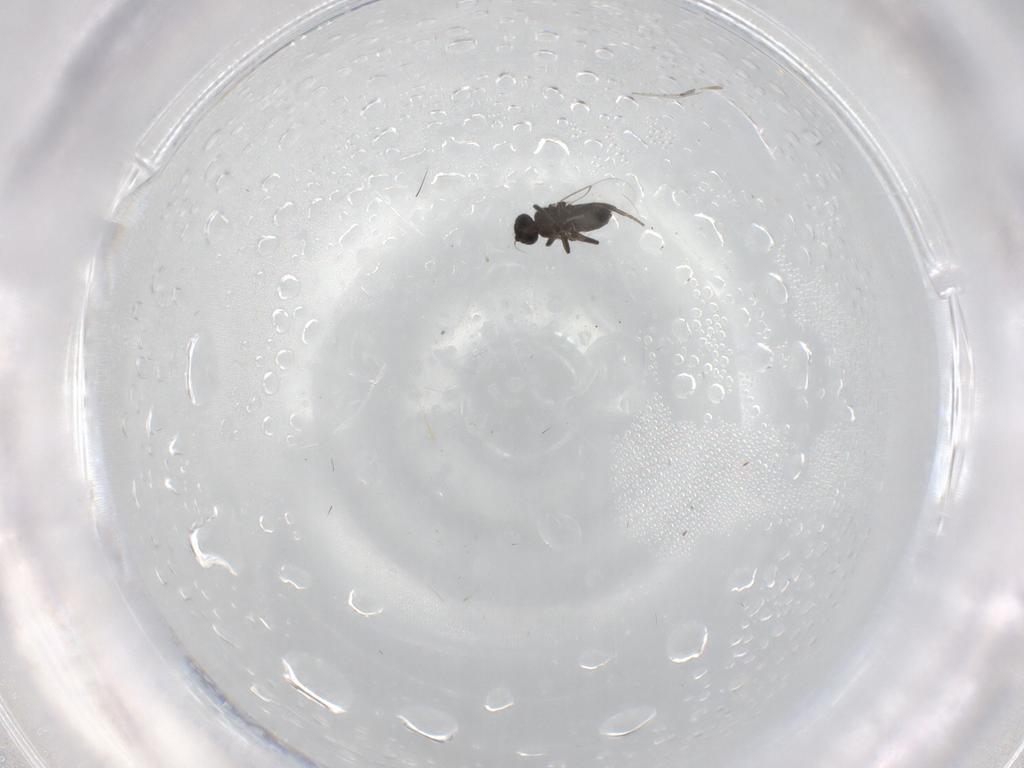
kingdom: Animalia
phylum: Arthropoda
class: Insecta
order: Diptera
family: Phoridae
